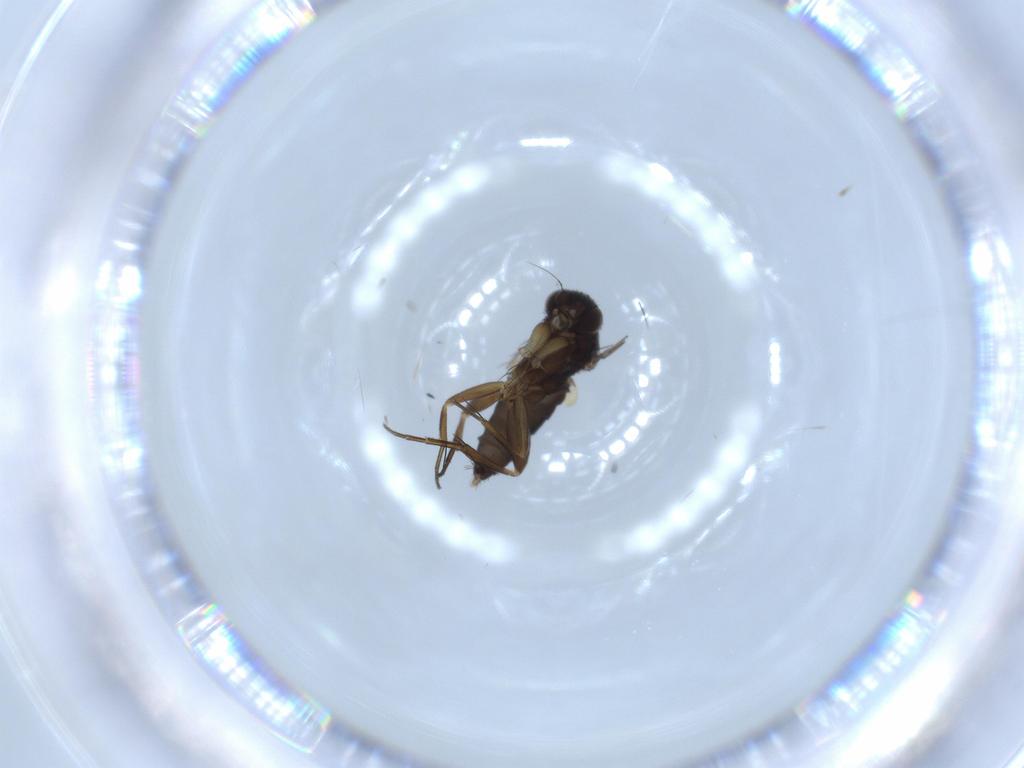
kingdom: Animalia
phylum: Arthropoda
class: Insecta
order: Diptera
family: Phoridae
